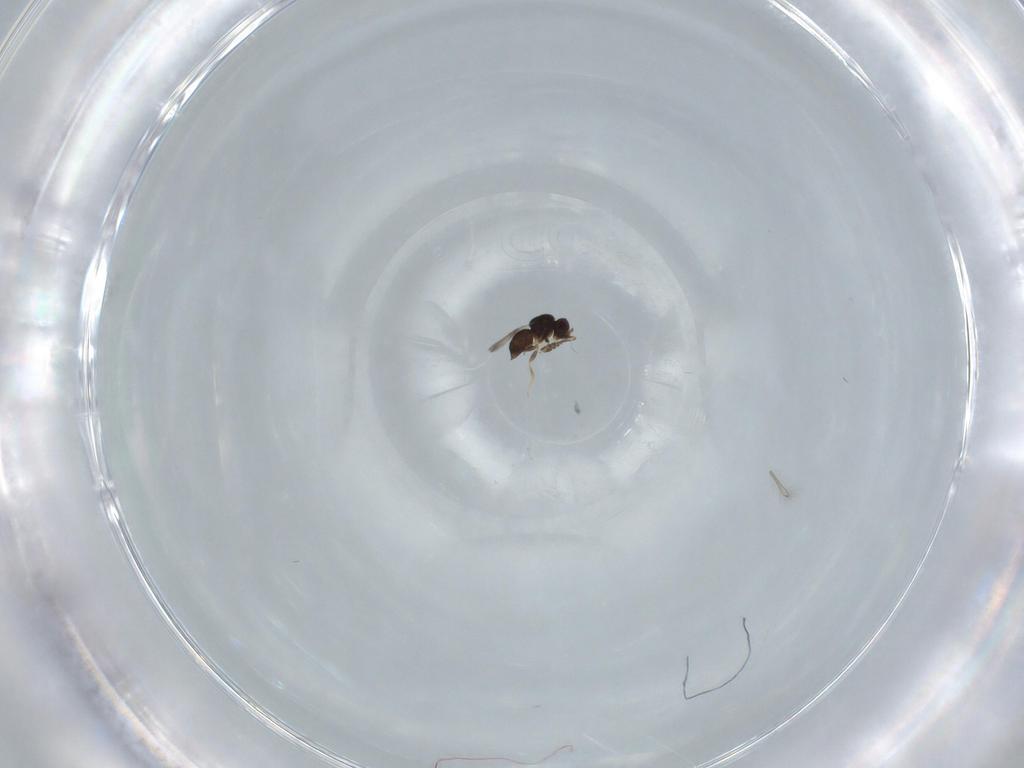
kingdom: Animalia
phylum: Arthropoda
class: Insecta
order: Hymenoptera
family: Ceraphronidae
